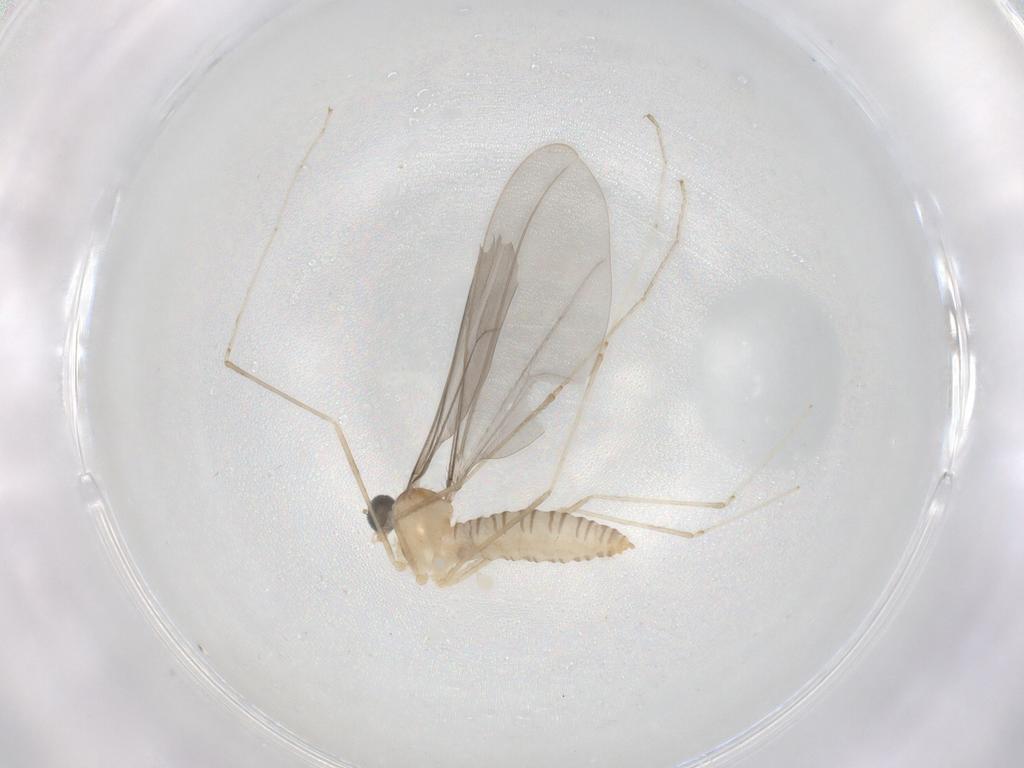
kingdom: Animalia
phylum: Arthropoda
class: Insecta
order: Diptera
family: Cecidomyiidae
